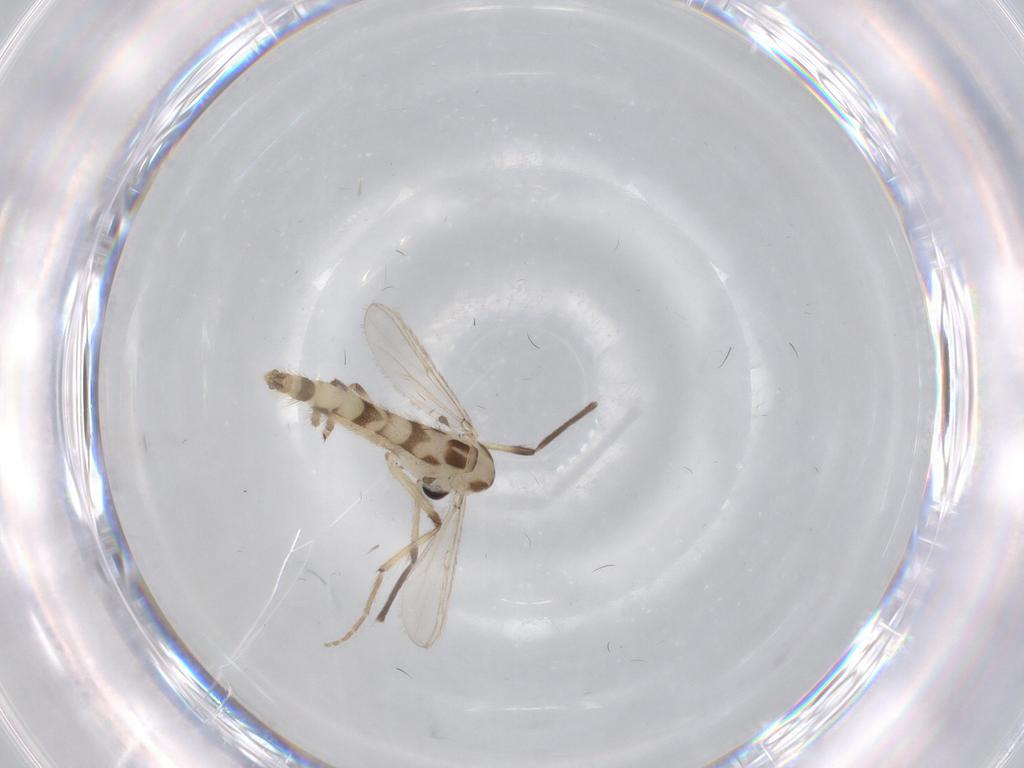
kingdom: Animalia
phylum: Arthropoda
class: Insecta
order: Diptera
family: Chironomidae
